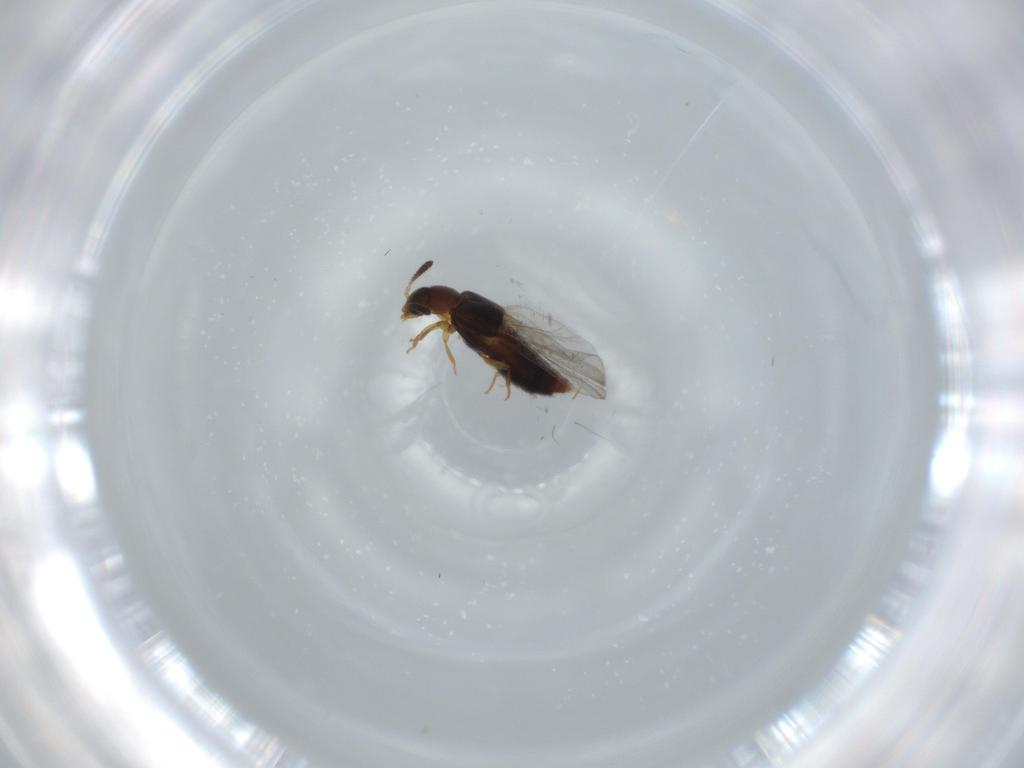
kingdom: Animalia
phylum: Arthropoda
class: Insecta
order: Coleoptera
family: Staphylinidae
